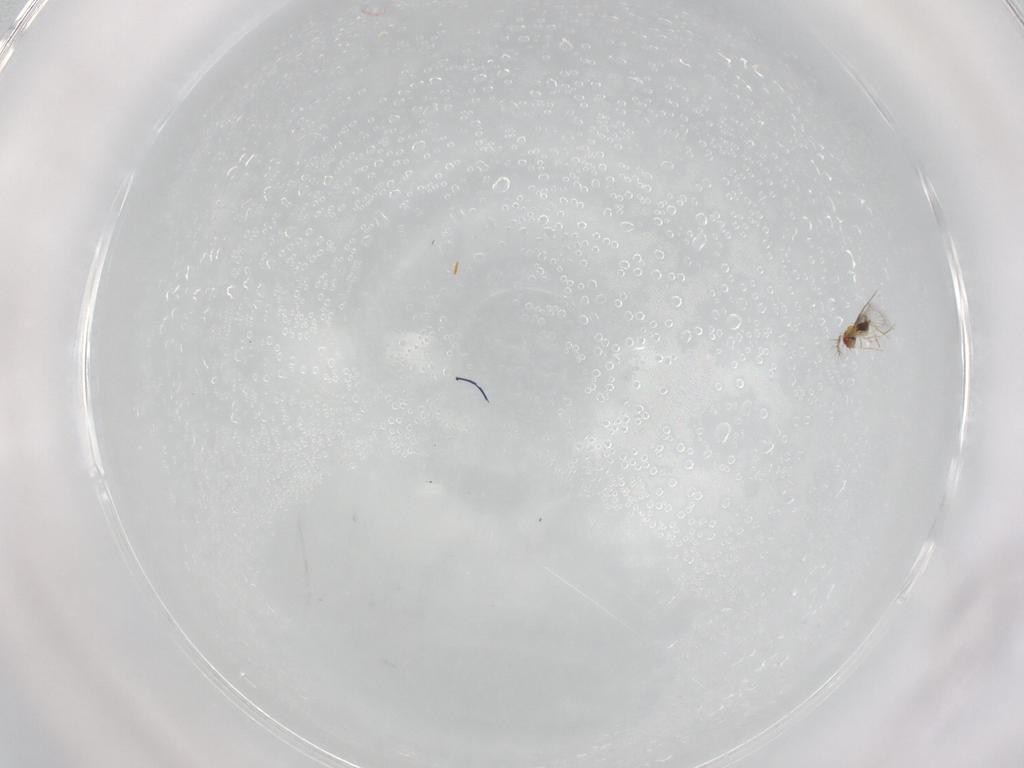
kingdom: Animalia
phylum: Arthropoda
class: Insecta
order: Hymenoptera
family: Trichogrammatidae
